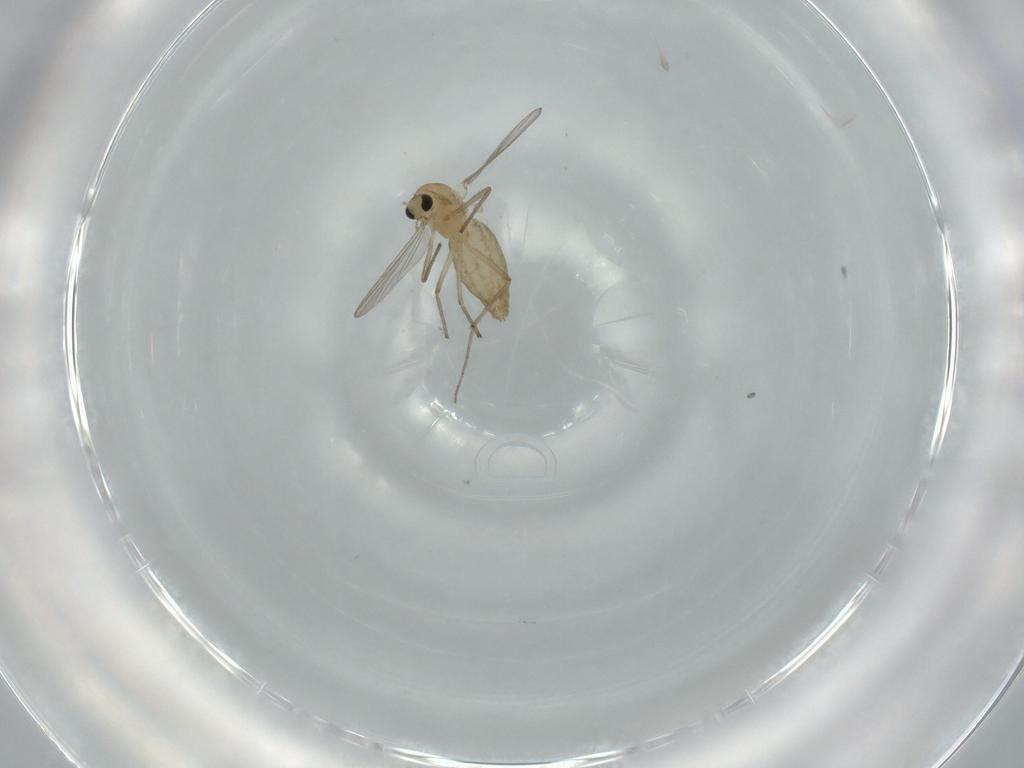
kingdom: Animalia
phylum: Arthropoda
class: Insecta
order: Diptera
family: Chironomidae
